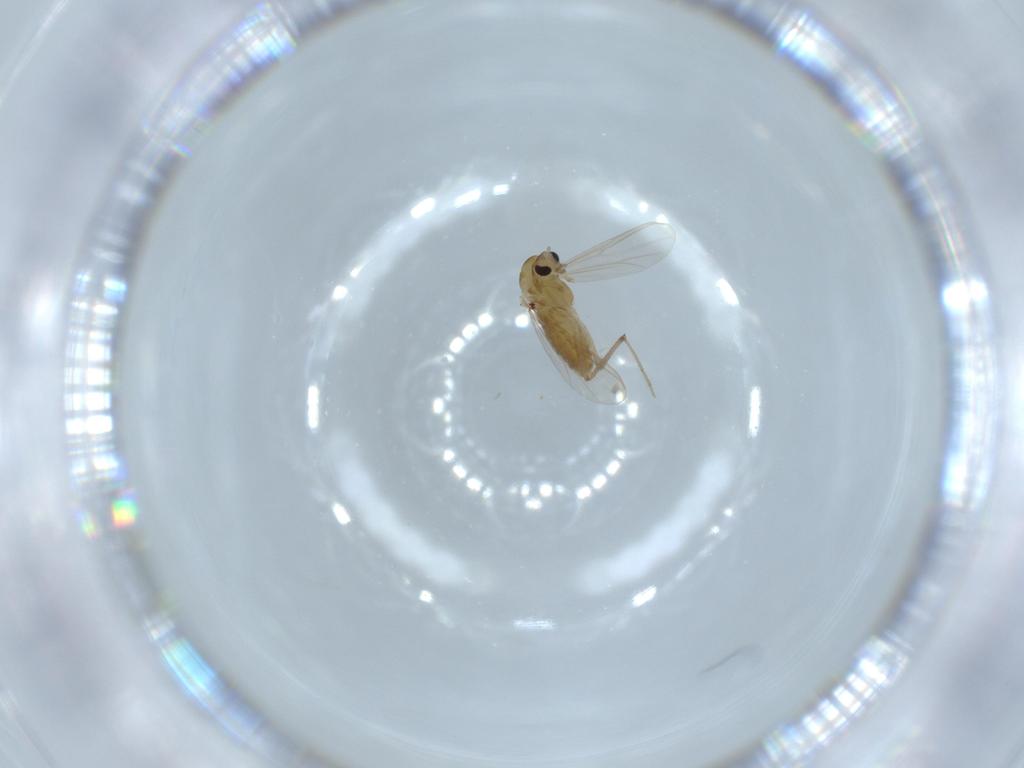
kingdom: Animalia
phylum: Arthropoda
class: Insecta
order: Diptera
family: Chironomidae
